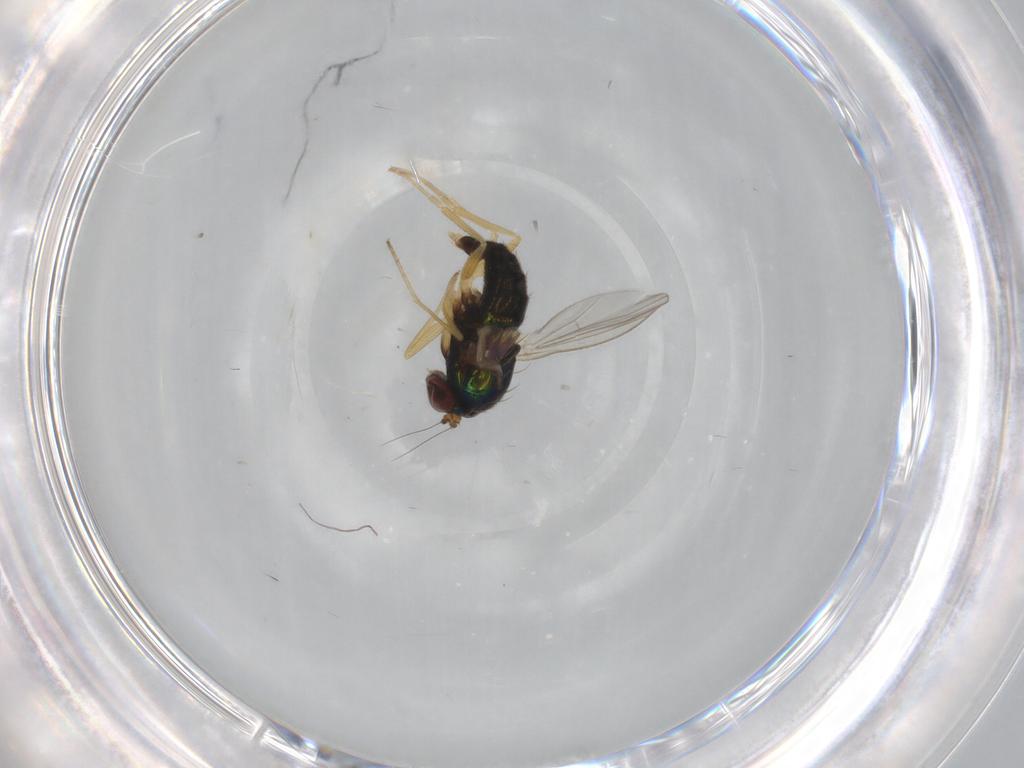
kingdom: Animalia
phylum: Arthropoda
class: Insecta
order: Diptera
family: Dolichopodidae
